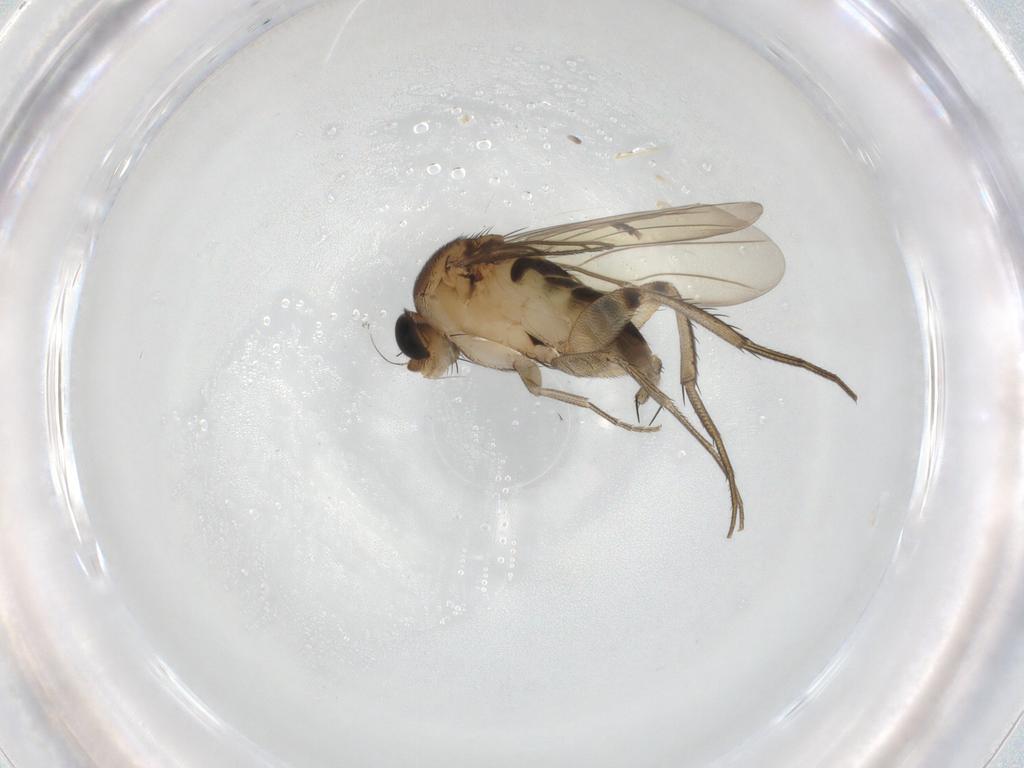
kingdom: Animalia
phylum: Arthropoda
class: Insecta
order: Diptera
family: Phoridae
